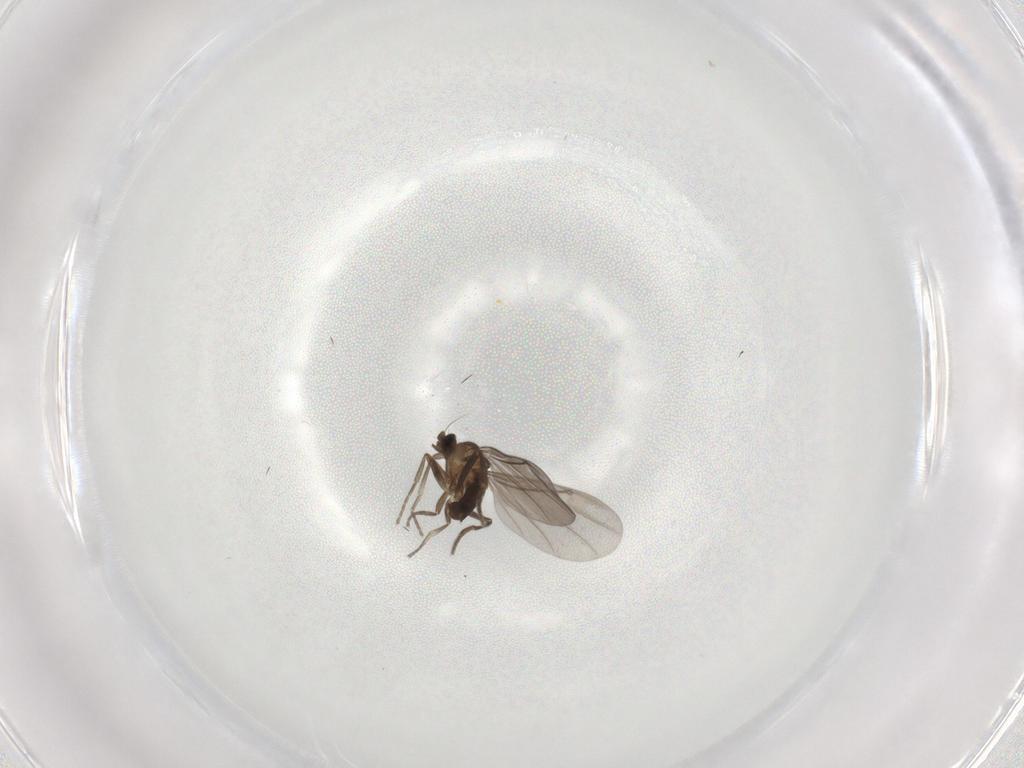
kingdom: Animalia
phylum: Arthropoda
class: Insecta
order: Diptera
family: Phoridae
